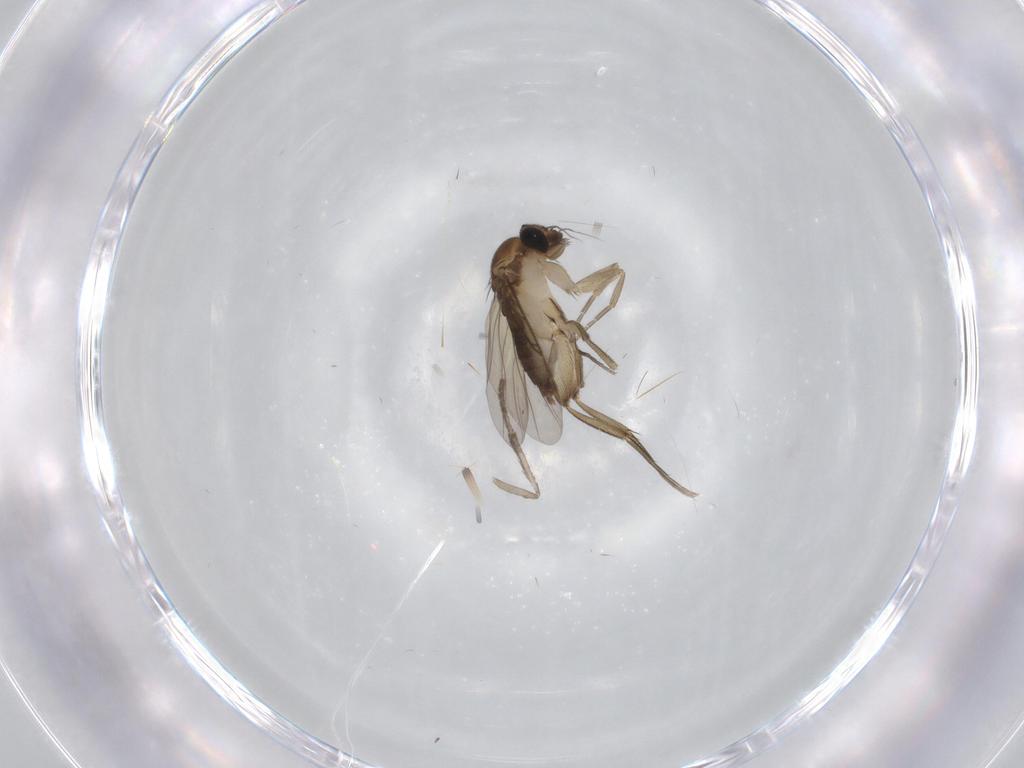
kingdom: Animalia
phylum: Arthropoda
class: Insecta
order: Diptera
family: Phoridae
